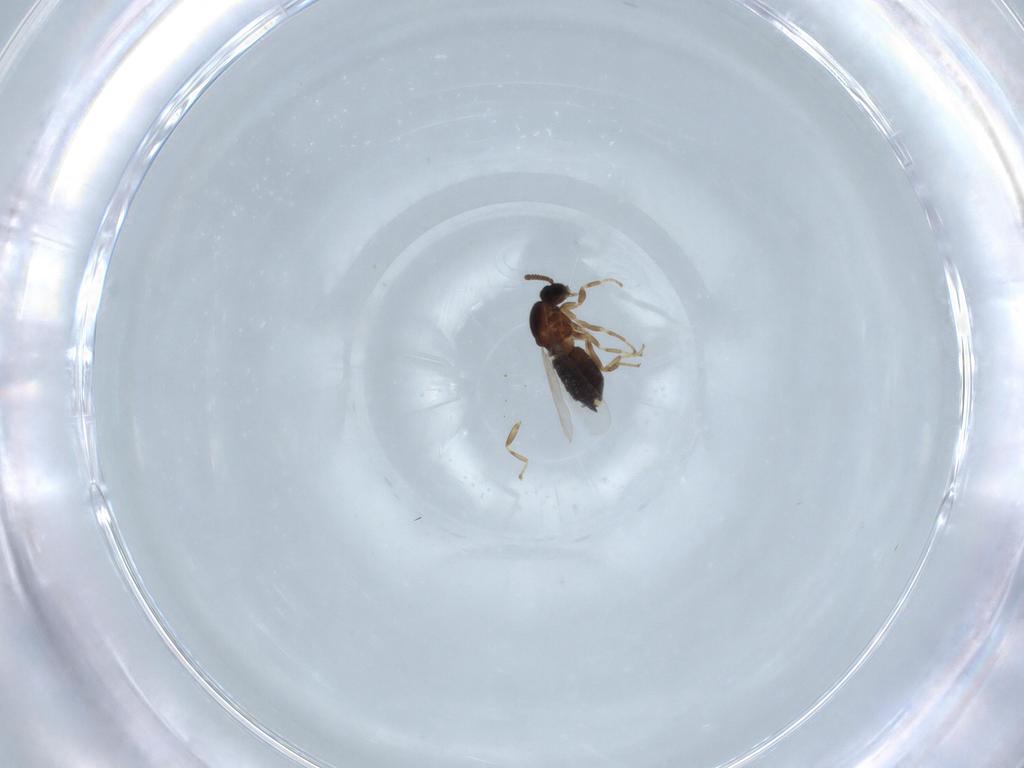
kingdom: Animalia
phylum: Arthropoda
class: Insecta
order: Diptera
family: Scatopsidae
